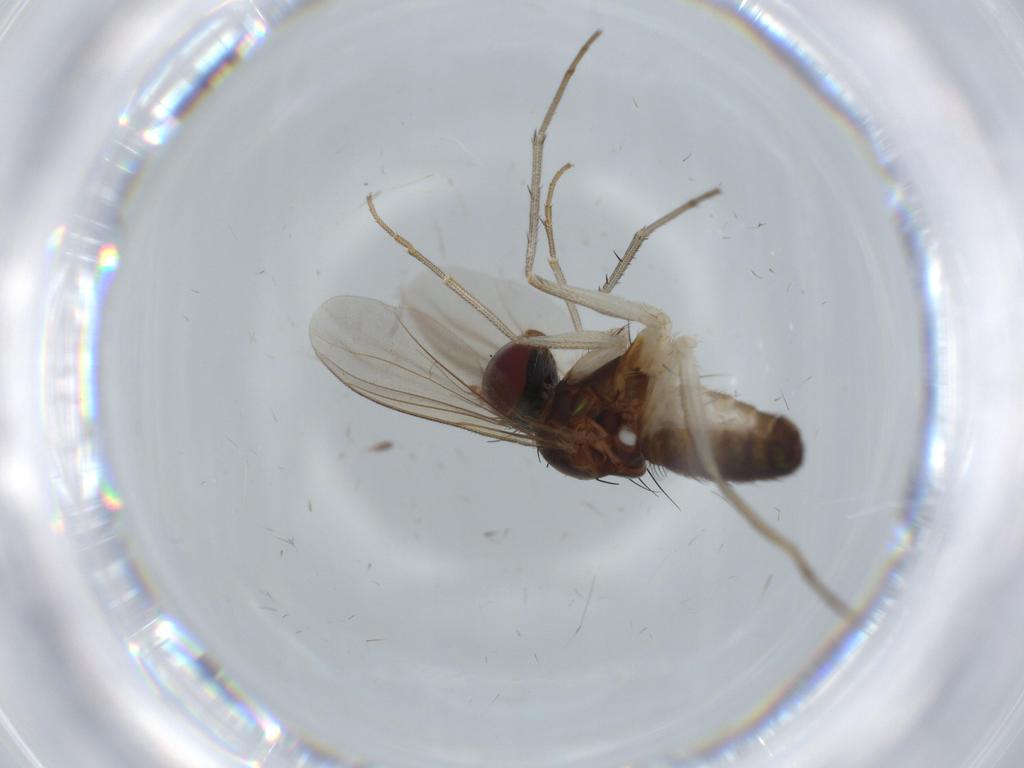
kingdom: Animalia
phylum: Arthropoda
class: Insecta
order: Diptera
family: Dolichopodidae
